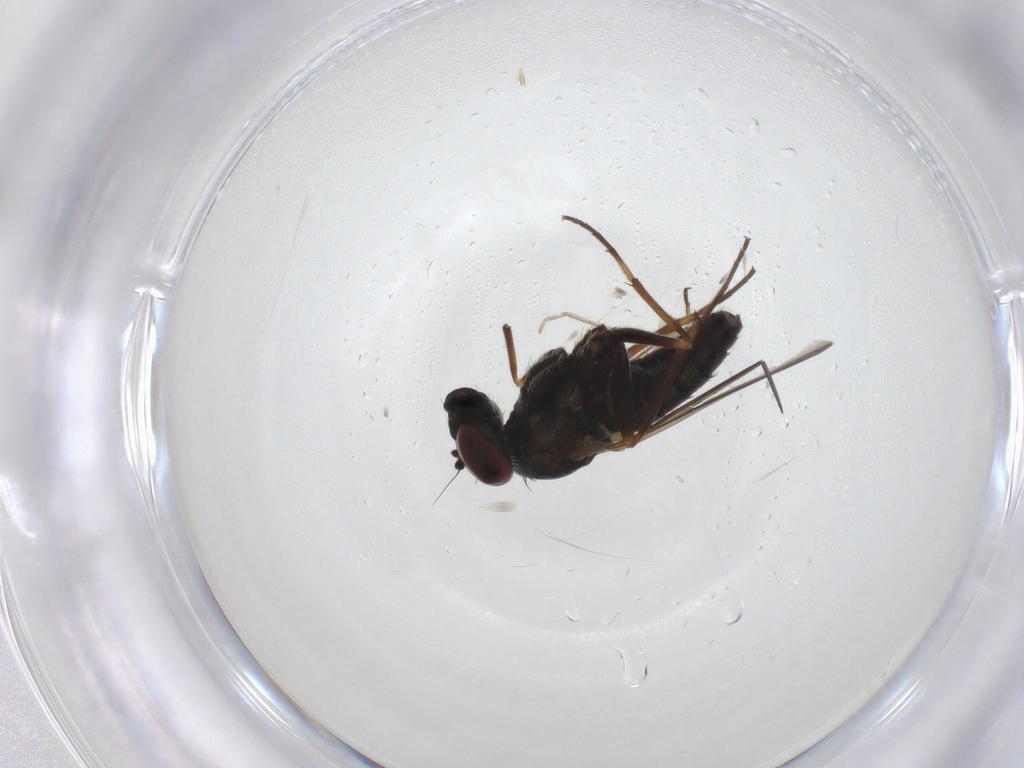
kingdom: Animalia
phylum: Arthropoda
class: Insecta
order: Diptera
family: Dolichopodidae
